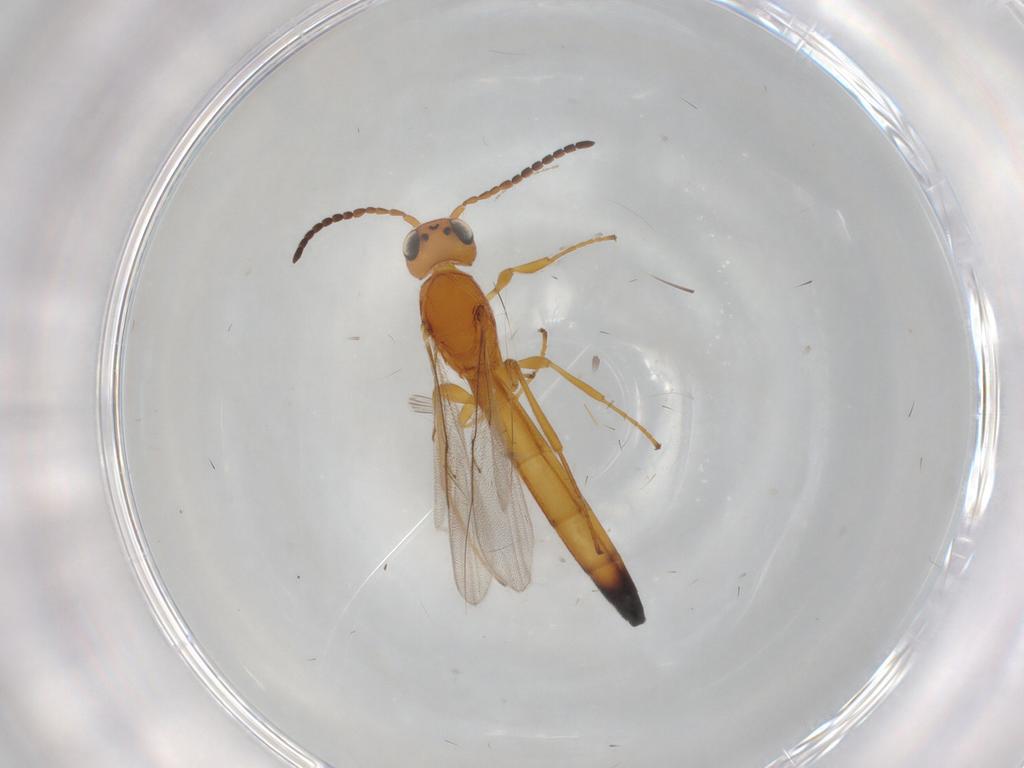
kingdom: Animalia
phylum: Arthropoda
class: Insecta
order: Hymenoptera
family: Scelionidae
